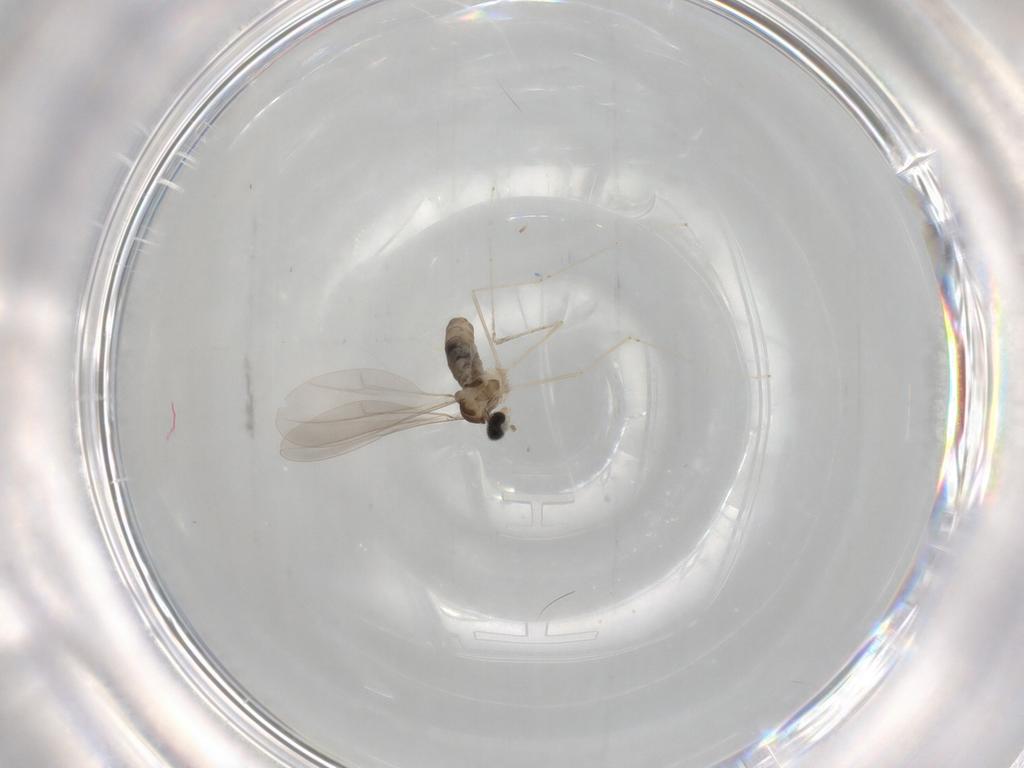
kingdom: Animalia
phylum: Arthropoda
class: Insecta
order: Diptera
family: Cecidomyiidae
